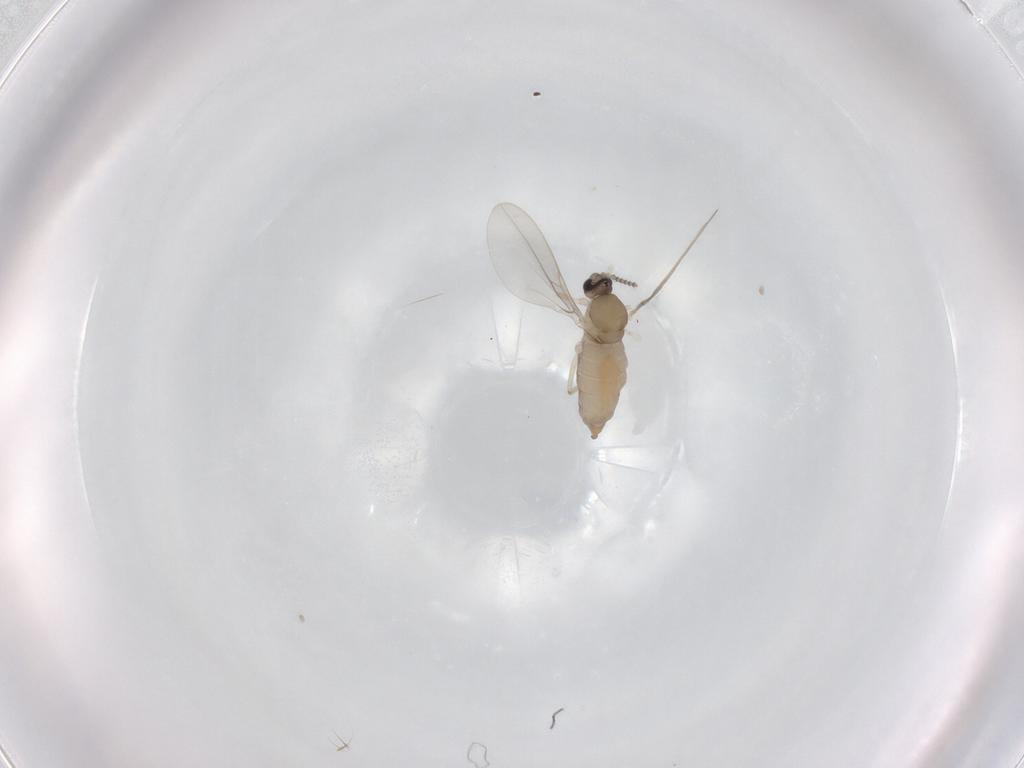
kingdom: Animalia
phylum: Arthropoda
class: Insecta
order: Diptera
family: Cecidomyiidae
